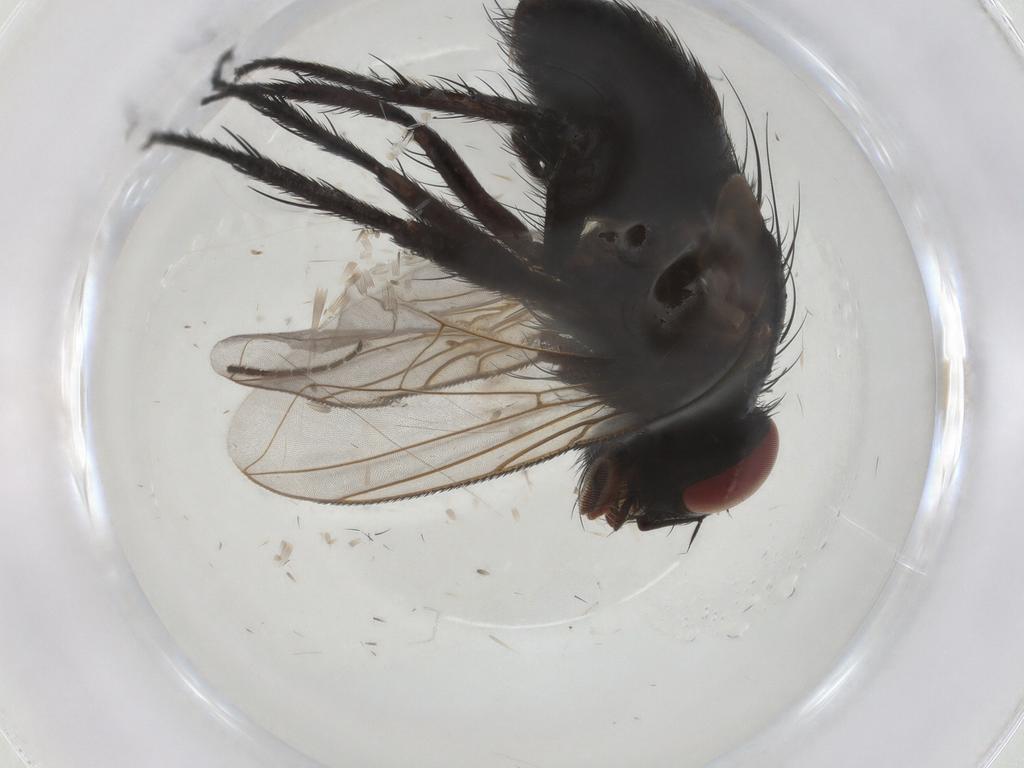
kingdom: Animalia
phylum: Arthropoda
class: Insecta
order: Diptera
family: Tachinidae
